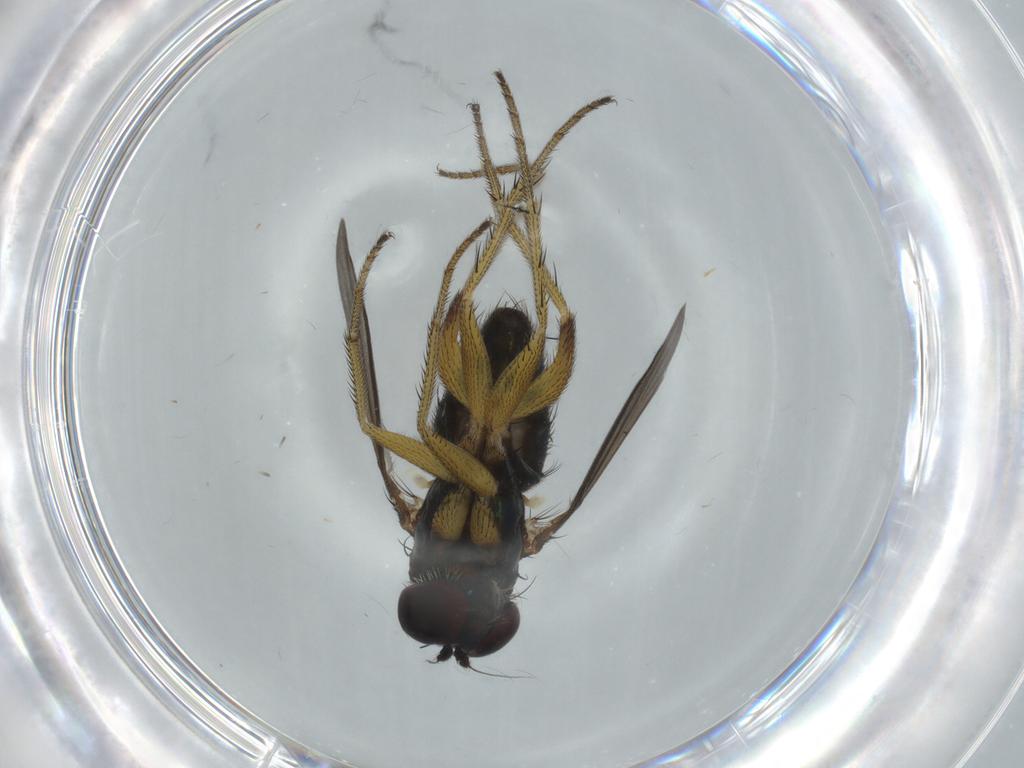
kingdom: Animalia
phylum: Arthropoda
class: Insecta
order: Diptera
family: Dolichopodidae
